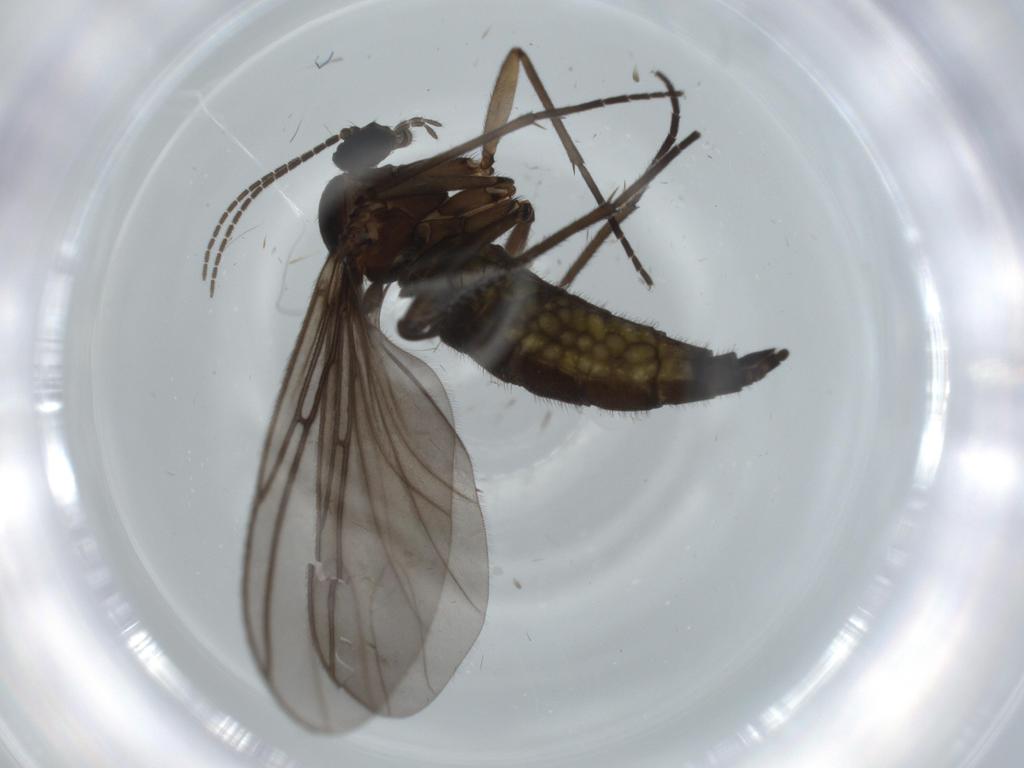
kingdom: Animalia
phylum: Arthropoda
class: Insecta
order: Diptera
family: Sciaridae
